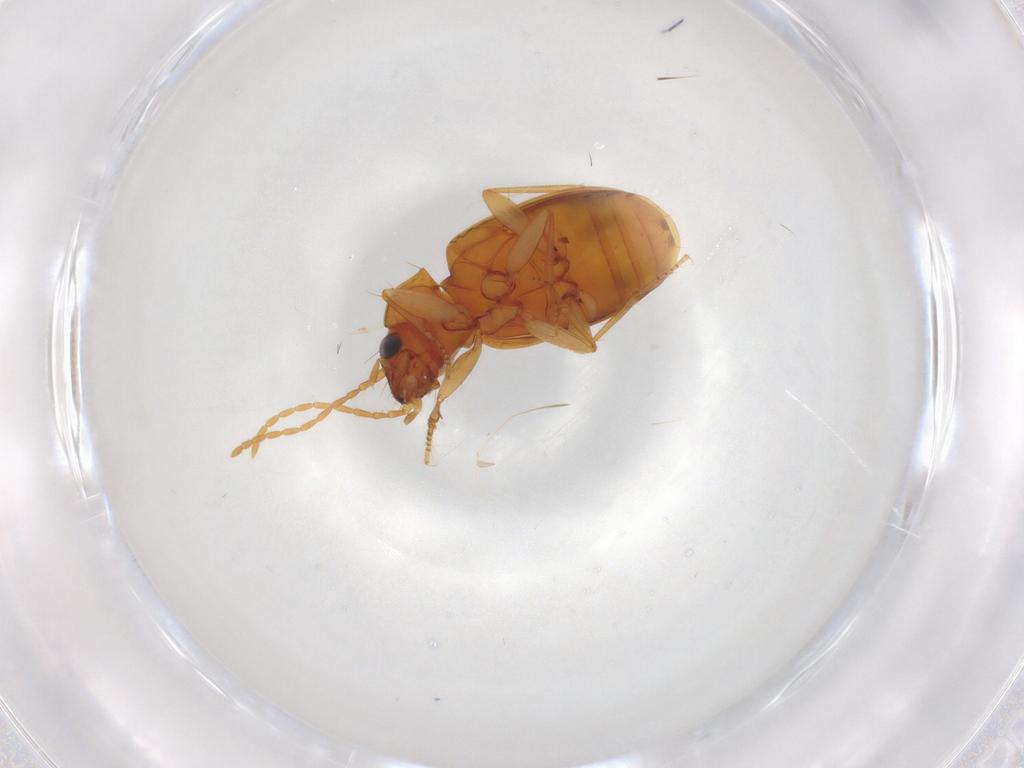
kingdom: Animalia
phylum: Arthropoda
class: Insecta
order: Coleoptera
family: Carabidae
